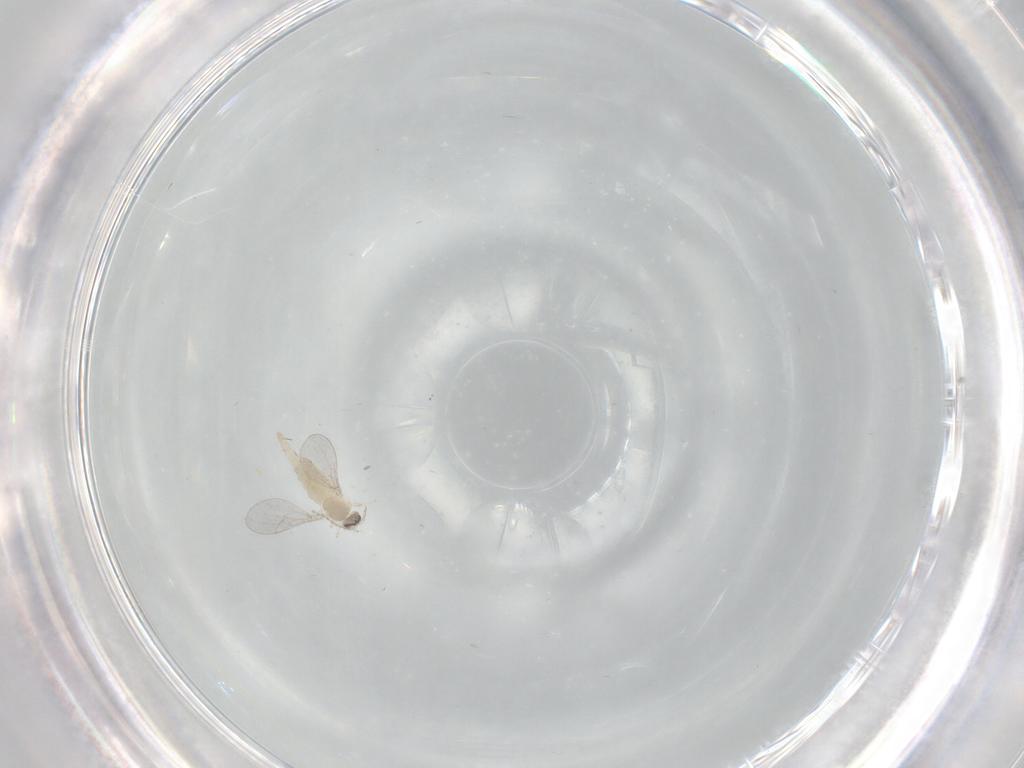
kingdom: Animalia
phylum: Arthropoda
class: Insecta
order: Diptera
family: Cecidomyiidae
